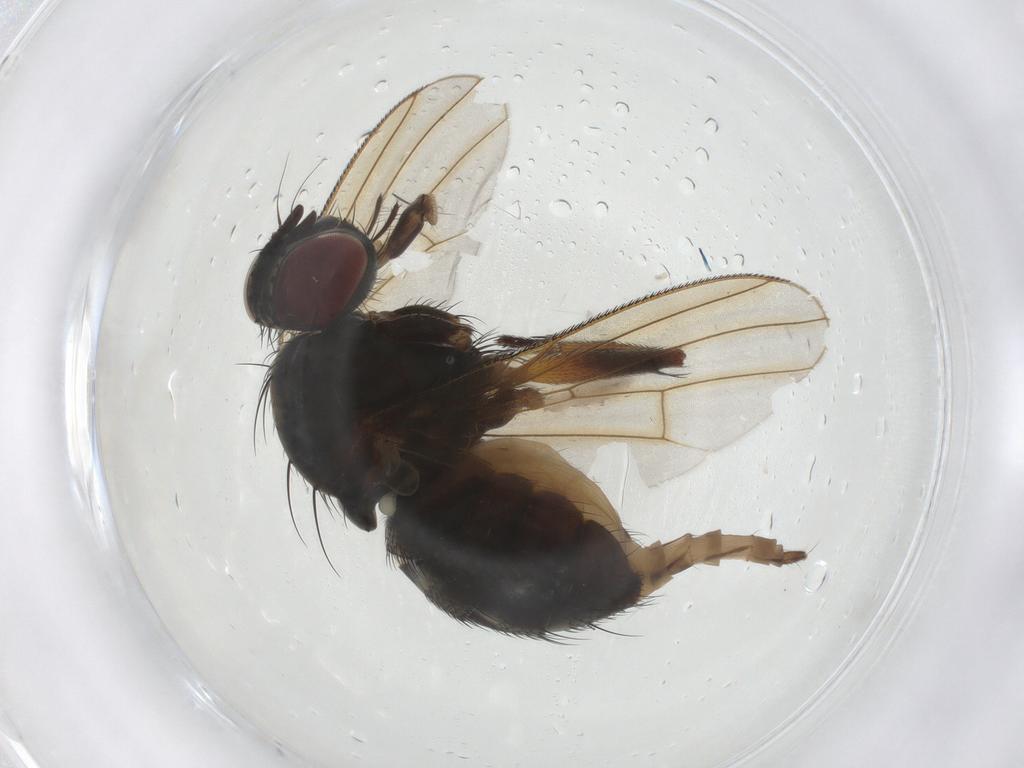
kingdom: Animalia
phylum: Arthropoda
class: Insecta
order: Diptera
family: Muscidae
